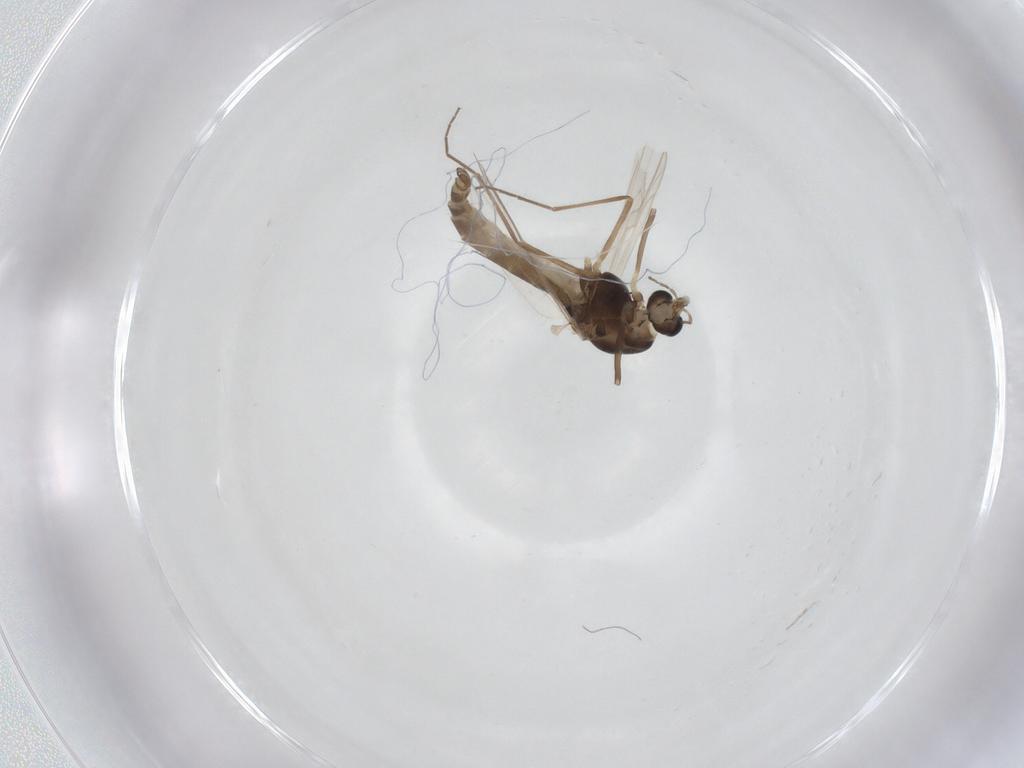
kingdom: Animalia
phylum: Arthropoda
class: Insecta
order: Diptera
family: Chironomidae
